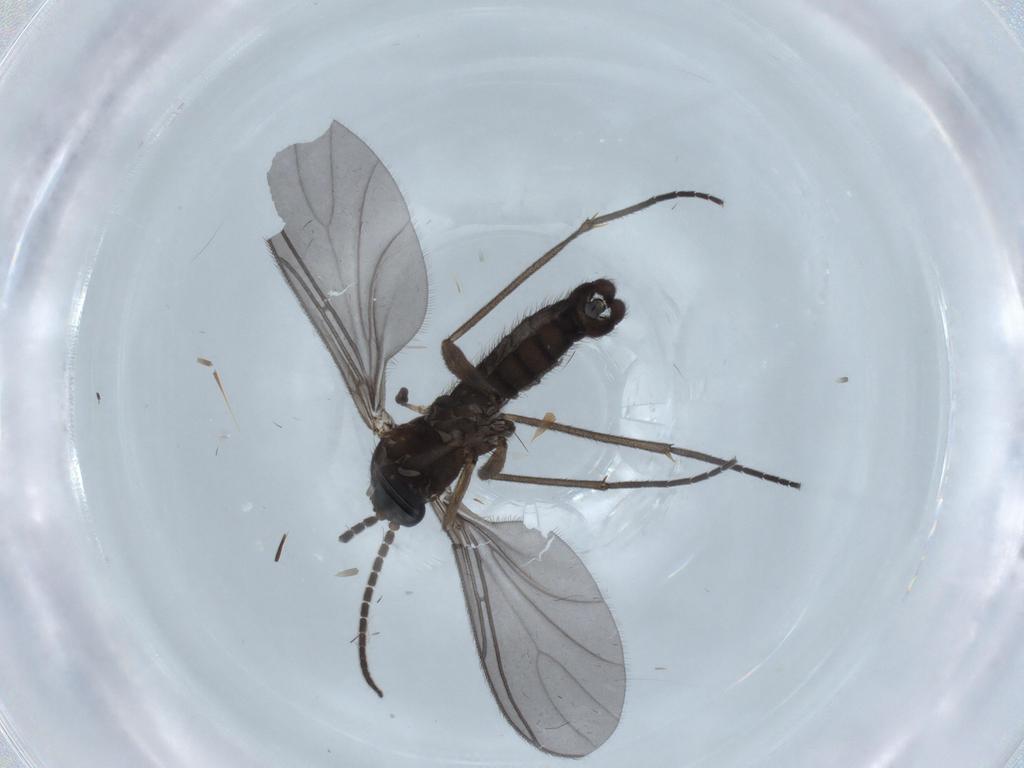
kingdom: Animalia
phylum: Arthropoda
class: Insecta
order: Diptera
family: Sciaridae
